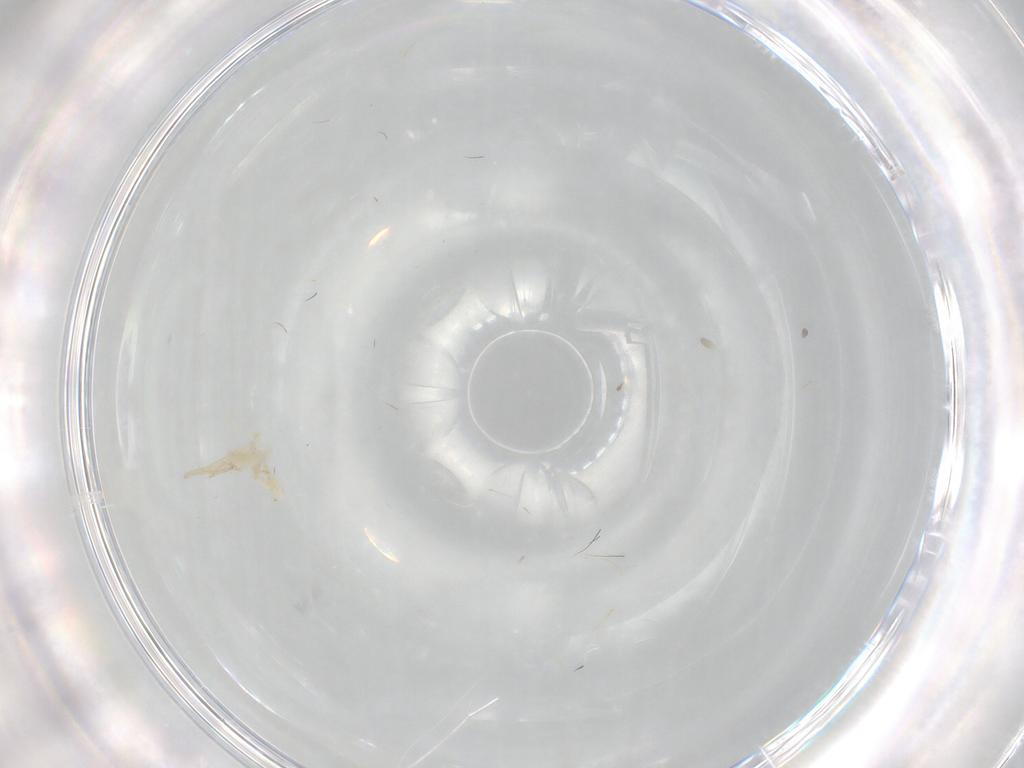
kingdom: Animalia
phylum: Arthropoda
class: Insecta
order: Diptera
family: Cecidomyiidae
